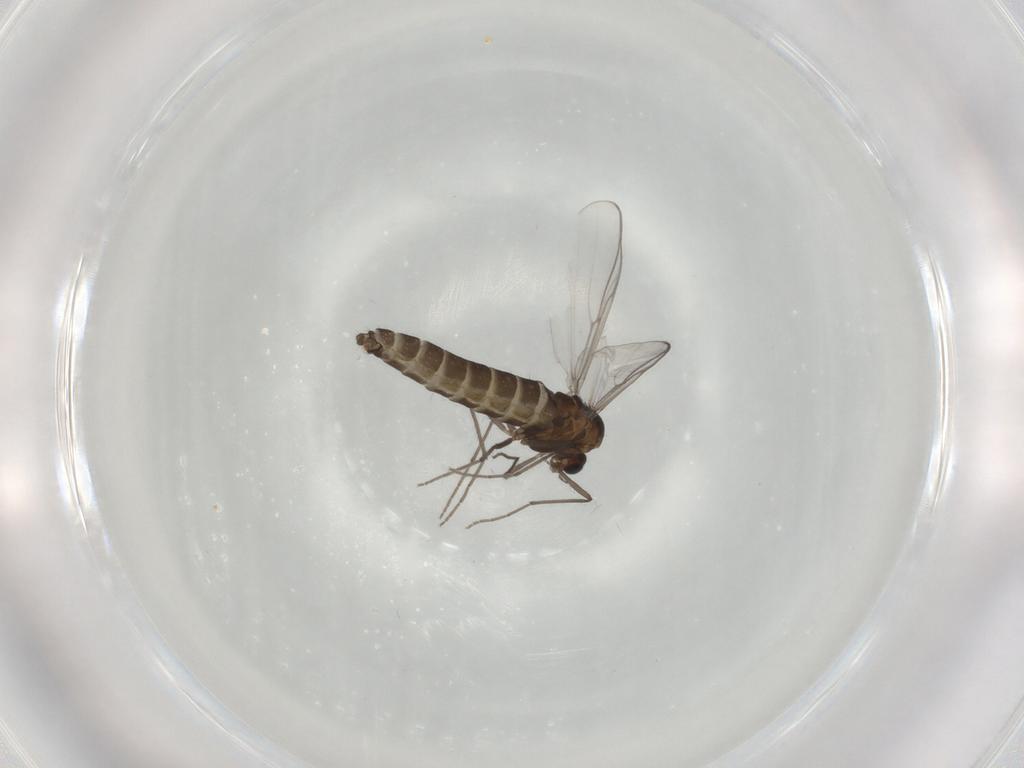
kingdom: Animalia
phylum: Arthropoda
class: Insecta
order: Diptera
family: Chironomidae
